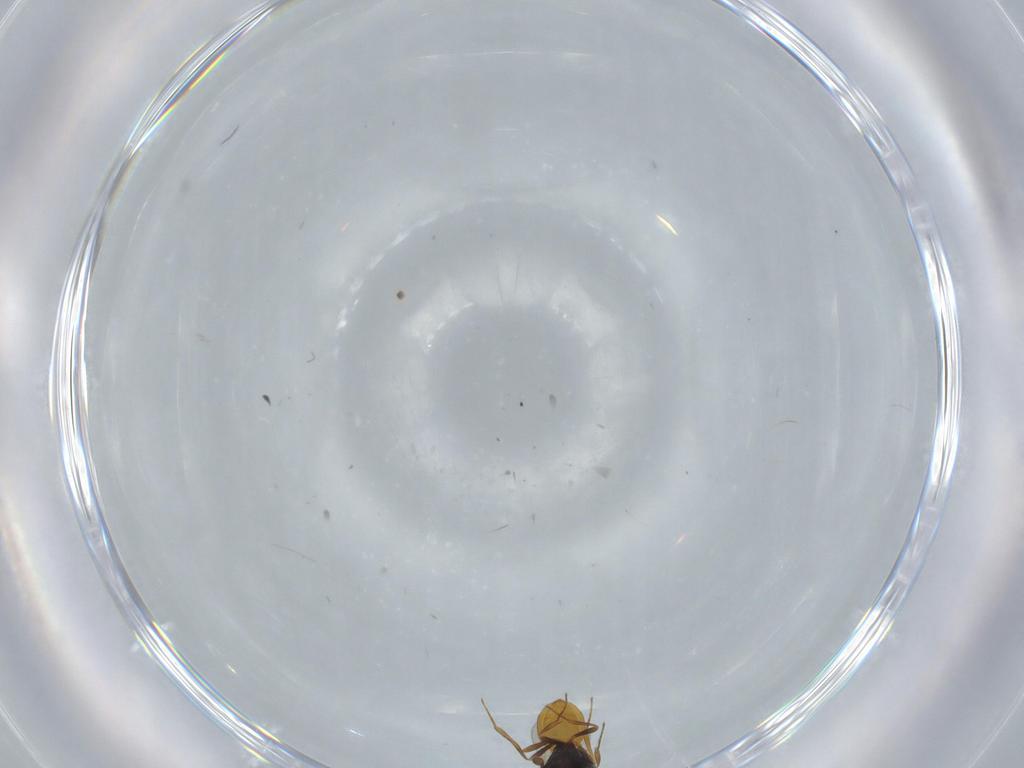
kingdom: Animalia
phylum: Arthropoda
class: Insecta
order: Hymenoptera
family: Scelionidae
